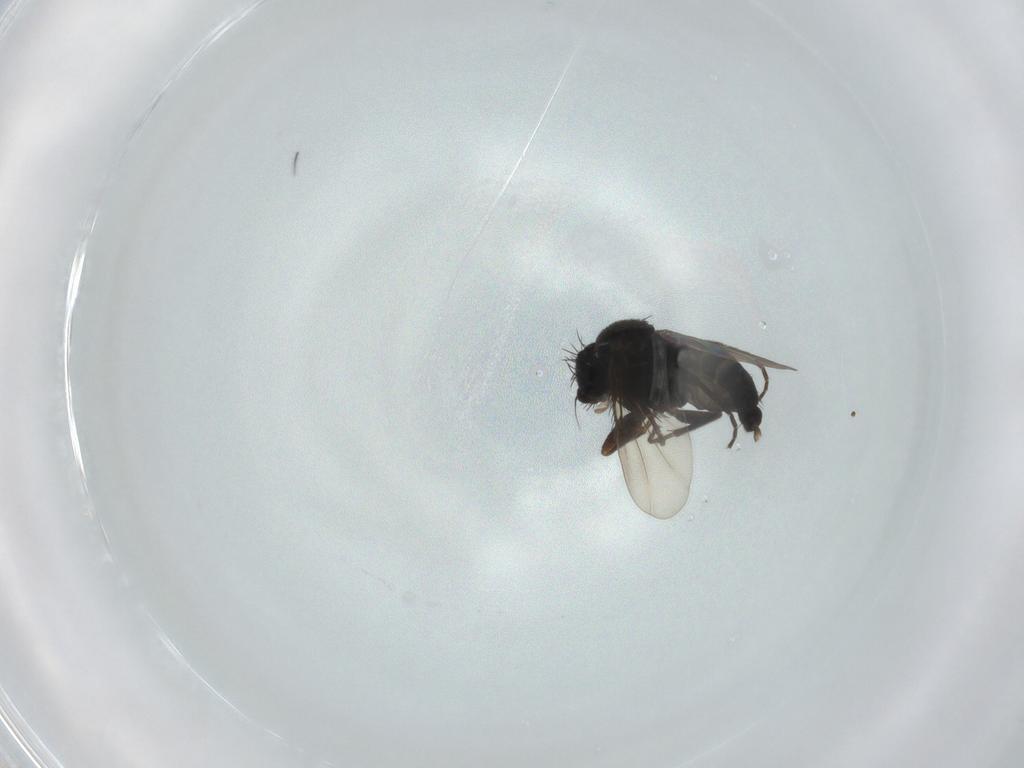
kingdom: Animalia
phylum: Arthropoda
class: Insecta
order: Diptera
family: Phoridae
